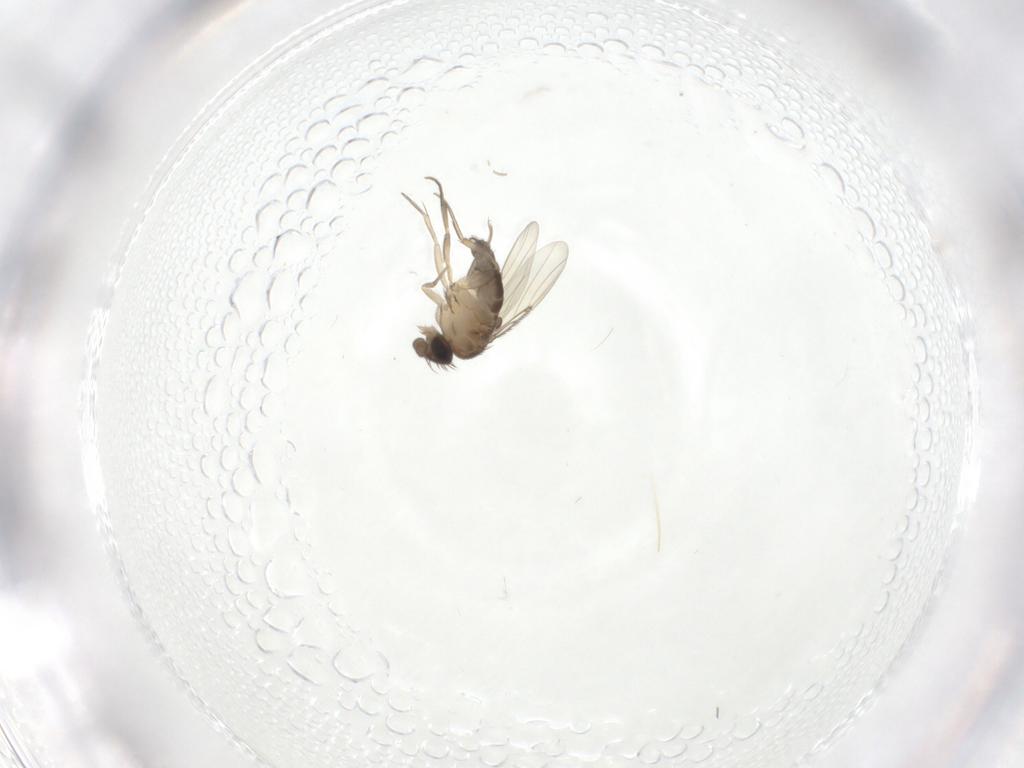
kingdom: Animalia
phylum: Arthropoda
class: Insecta
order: Diptera
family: Phoridae
